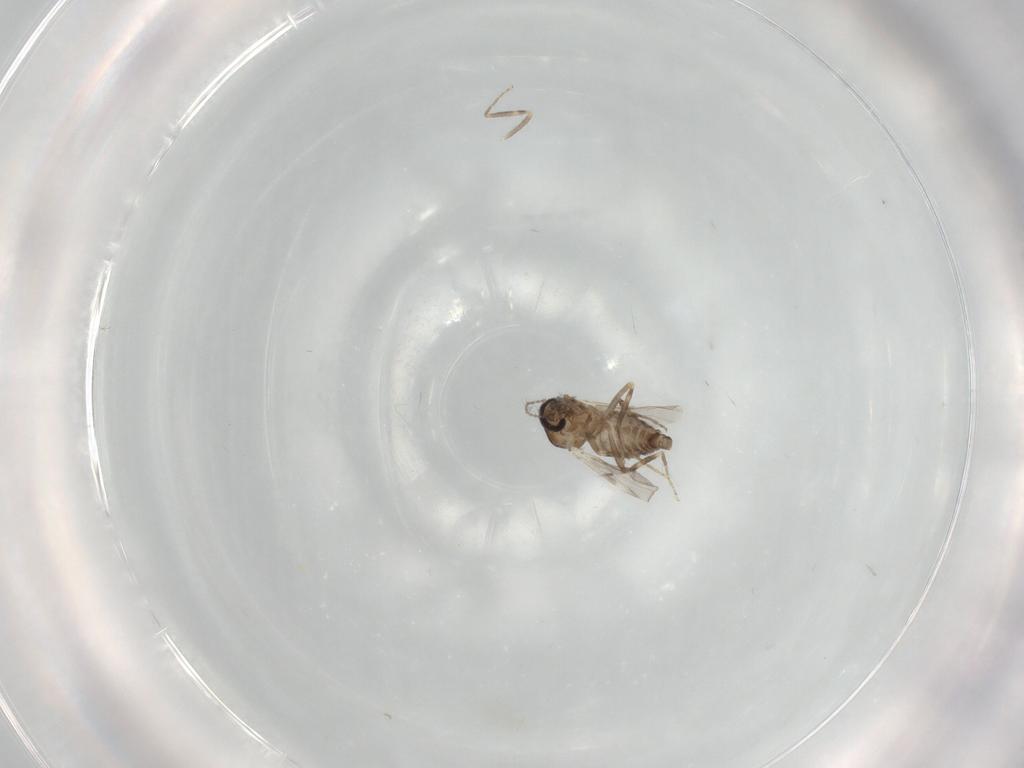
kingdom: Animalia
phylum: Arthropoda
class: Insecta
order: Diptera
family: Ceratopogonidae
